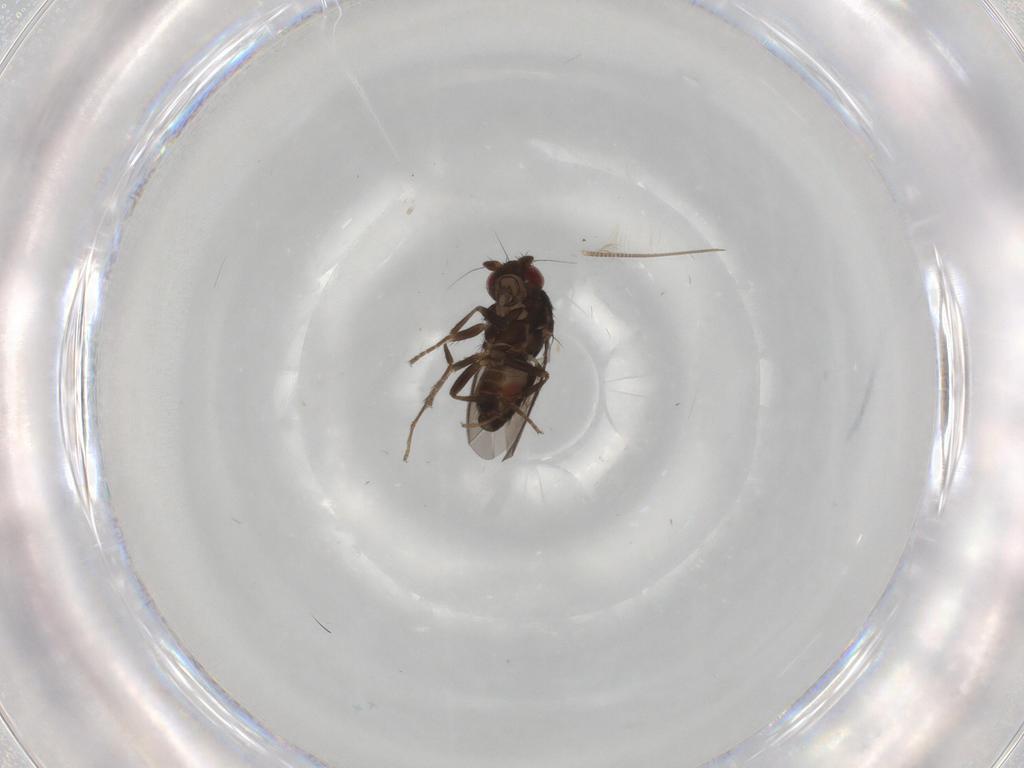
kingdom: Animalia
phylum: Arthropoda
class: Insecta
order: Diptera
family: Sphaeroceridae
